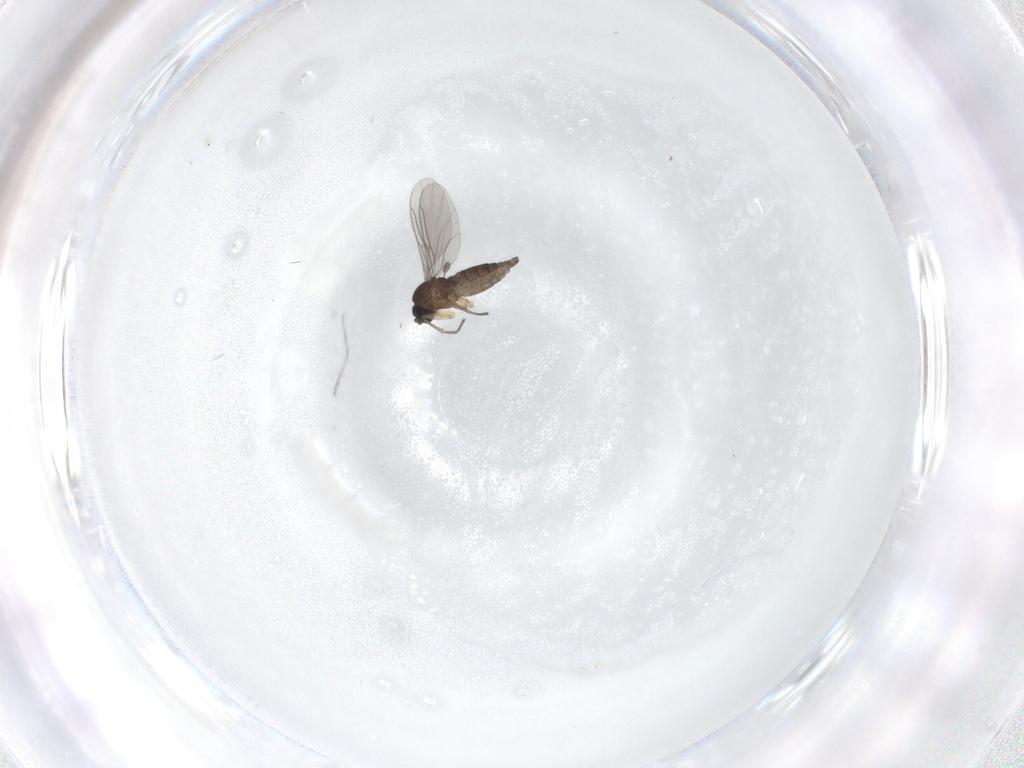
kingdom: Animalia
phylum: Arthropoda
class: Insecta
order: Diptera
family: Sciaridae
